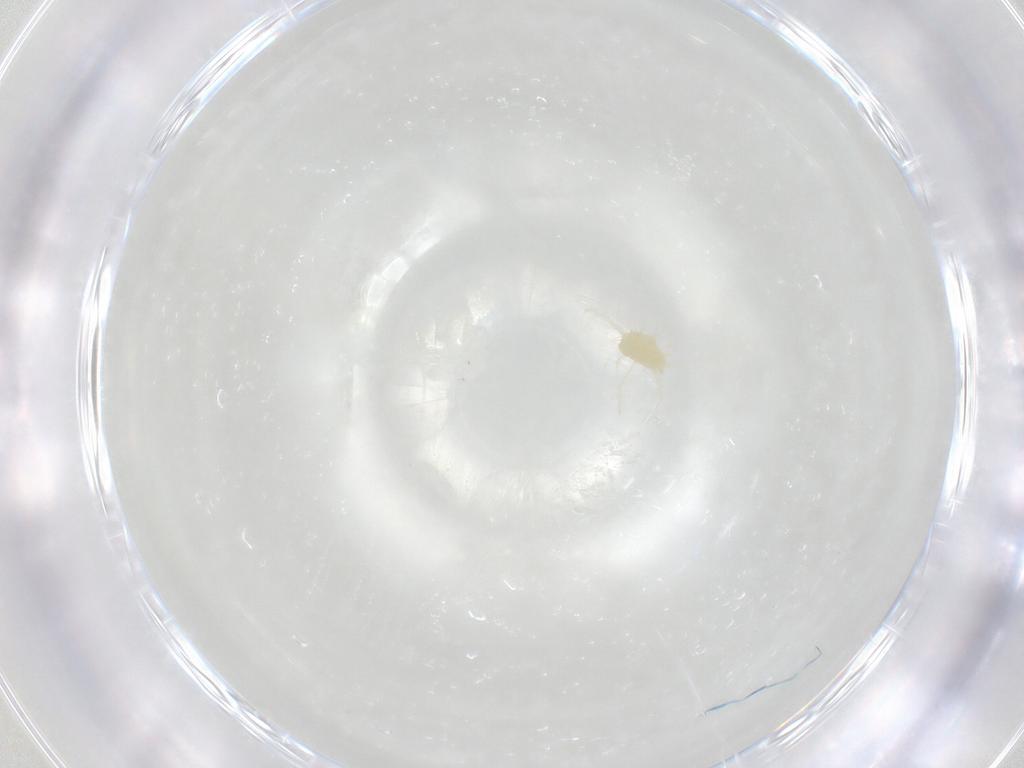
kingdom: Animalia
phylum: Arthropoda
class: Arachnida
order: Trombidiformes
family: Tetranychidae
